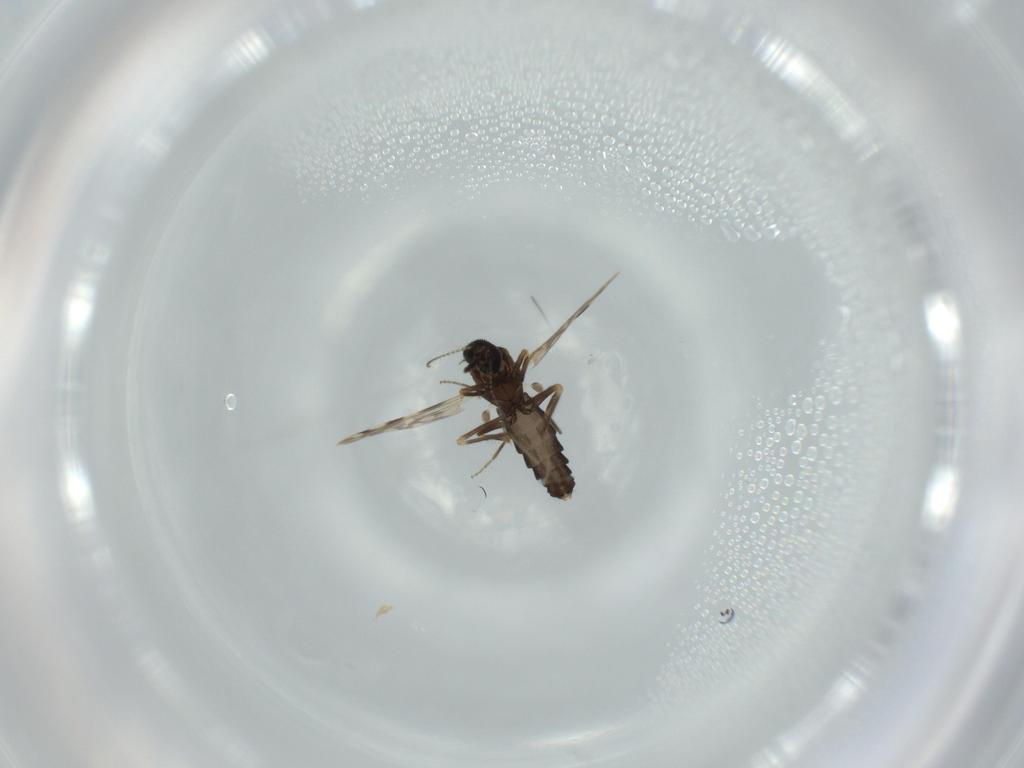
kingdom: Animalia
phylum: Arthropoda
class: Insecta
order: Diptera
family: Ceratopogonidae
